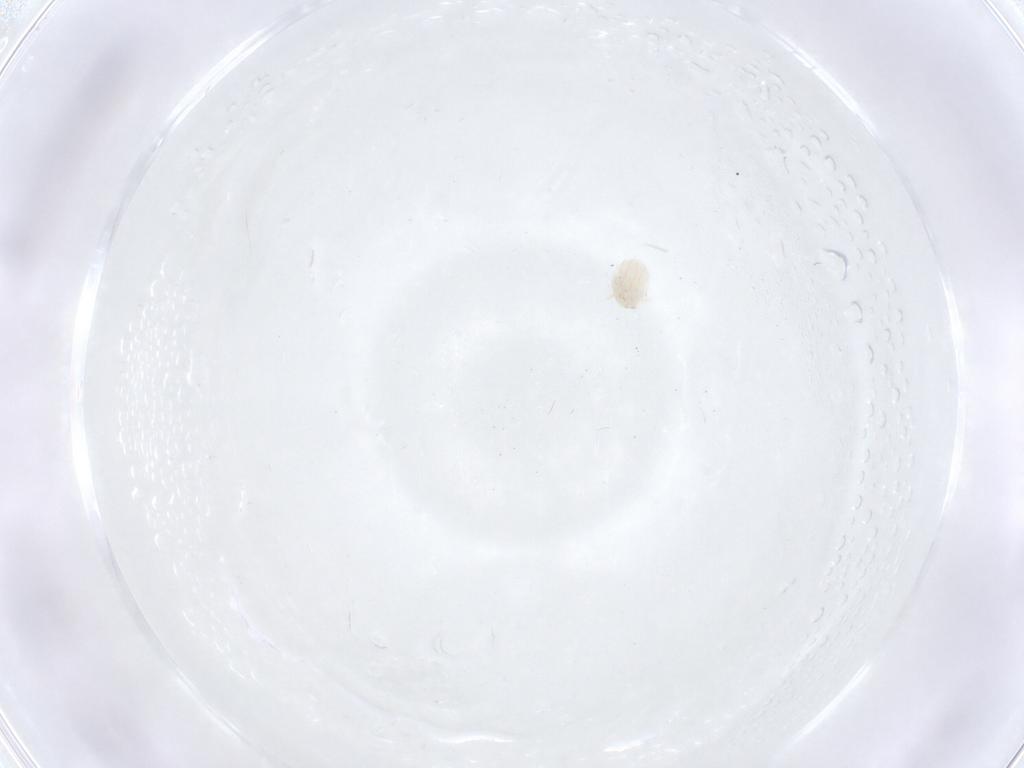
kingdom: Animalia
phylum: Arthropoda
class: Arachnida
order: Trombidiformes
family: Microtrombidiidae
